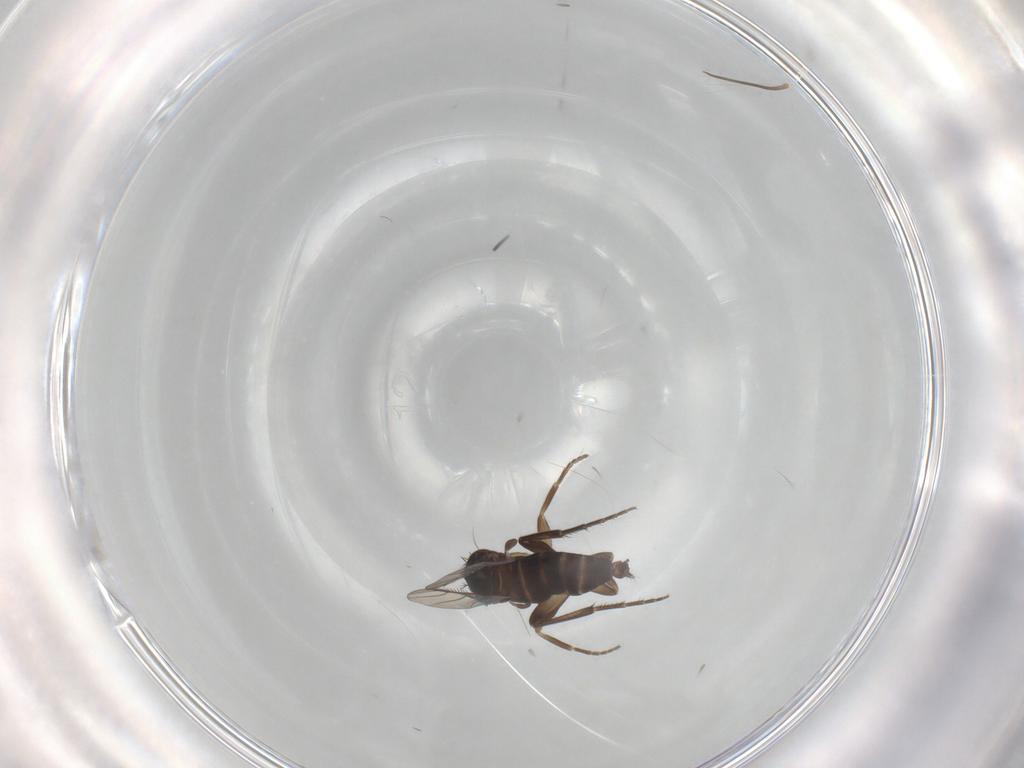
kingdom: Animalia
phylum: Arthropoda
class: Insecta
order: Diptera
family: Phoridae
